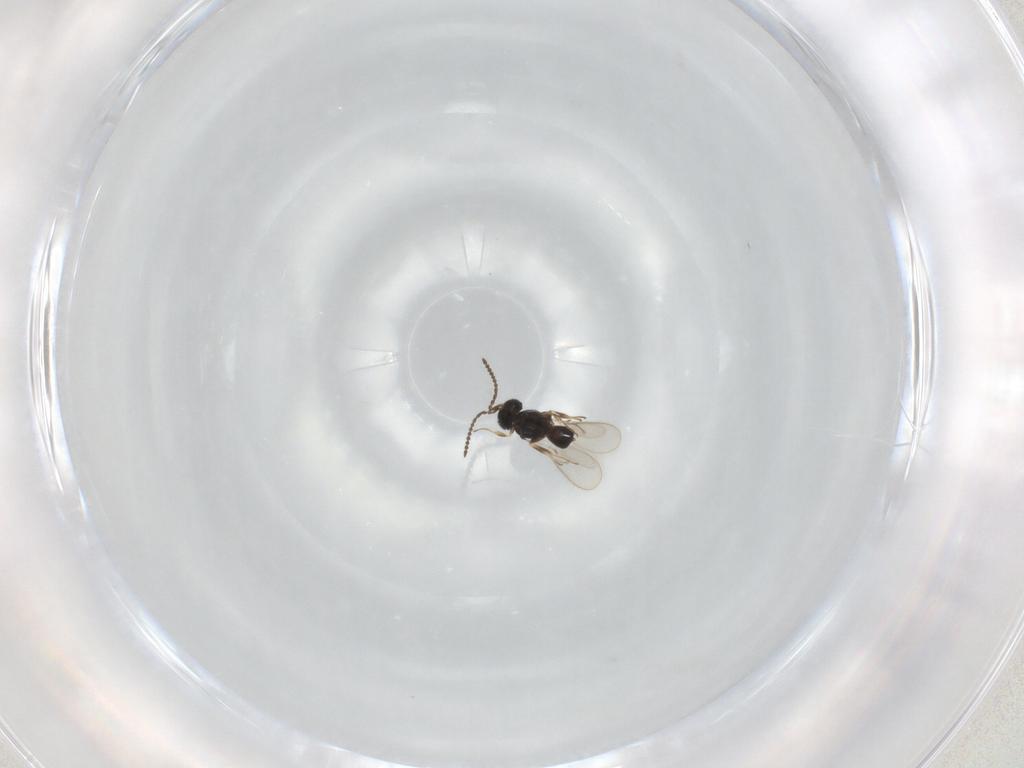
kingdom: Animalia
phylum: Arthropoda
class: Insecta
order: Hymenoptera
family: Scelionidae
